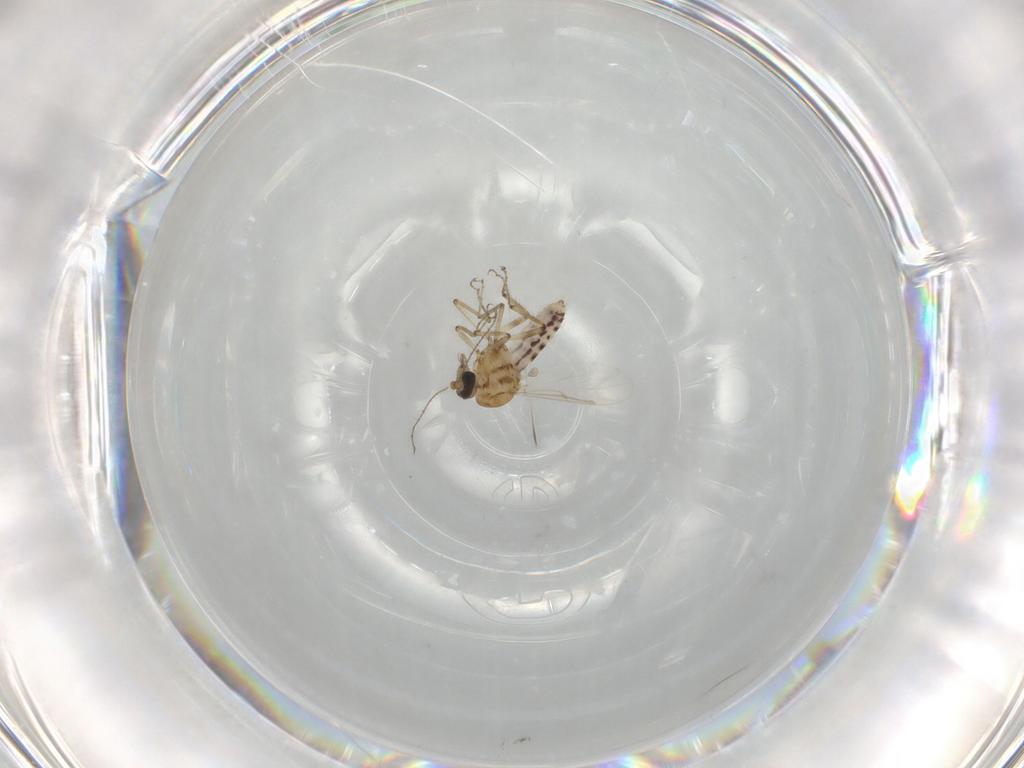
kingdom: Animalia
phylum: Arthropoda
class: Insecta
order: Diptera
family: Ceratopogonidae
